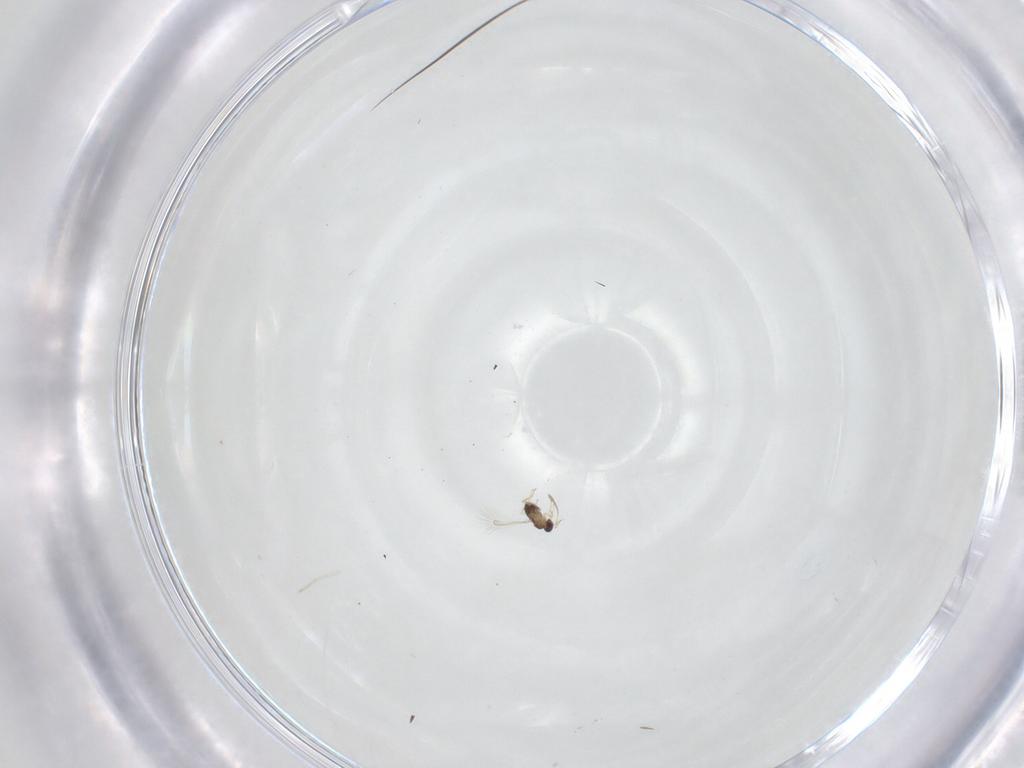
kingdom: Animalia
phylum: Arthropoda
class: Insecta
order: Hymenoptera
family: Mymaridae
